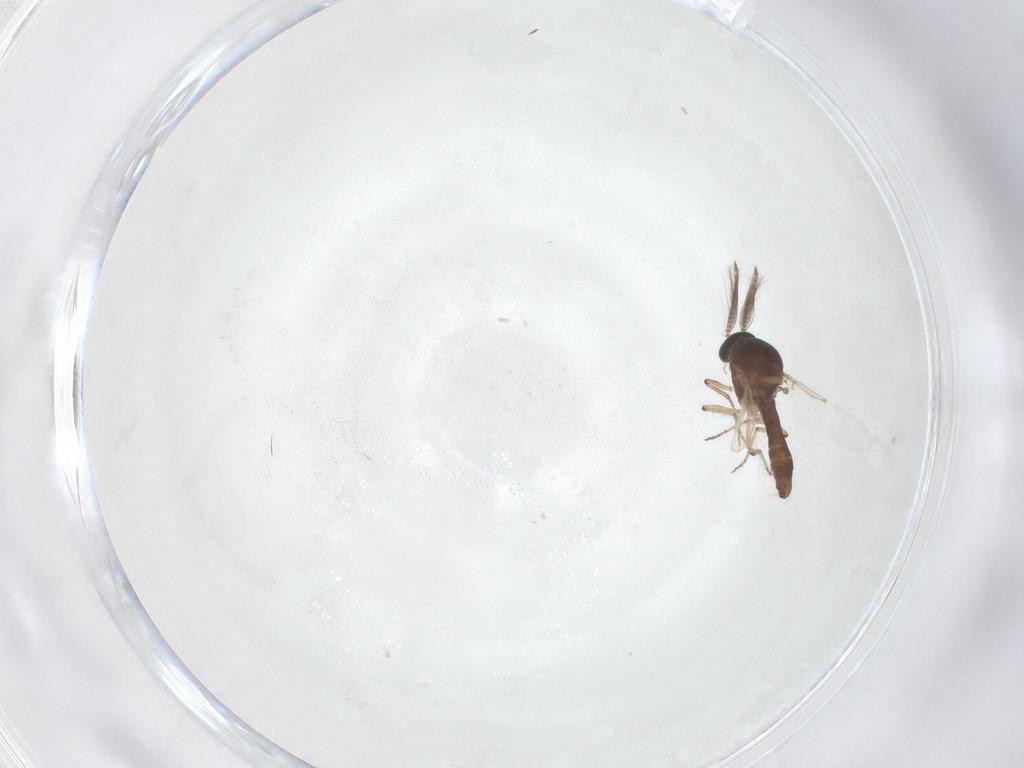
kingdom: Animalia
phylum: Arthropoda
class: Insecta
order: Diptera
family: Ceratopogonidae
